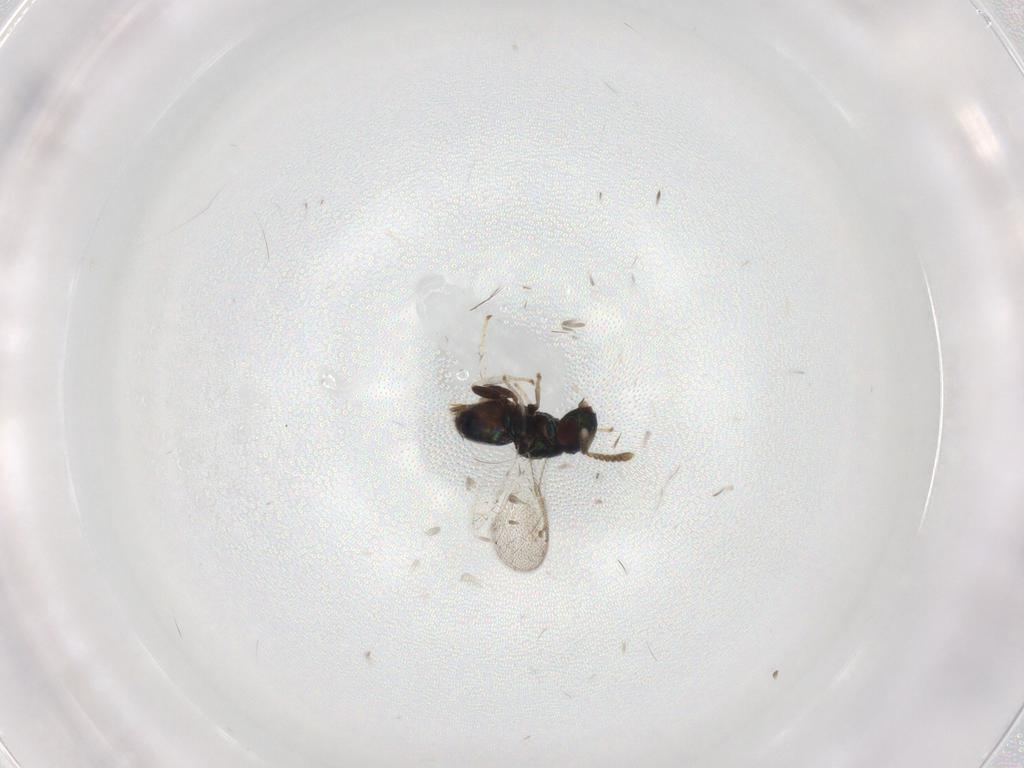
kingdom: Animalia
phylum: Arthropoda
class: Insecta
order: Hymenoptera
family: Pirenidae
